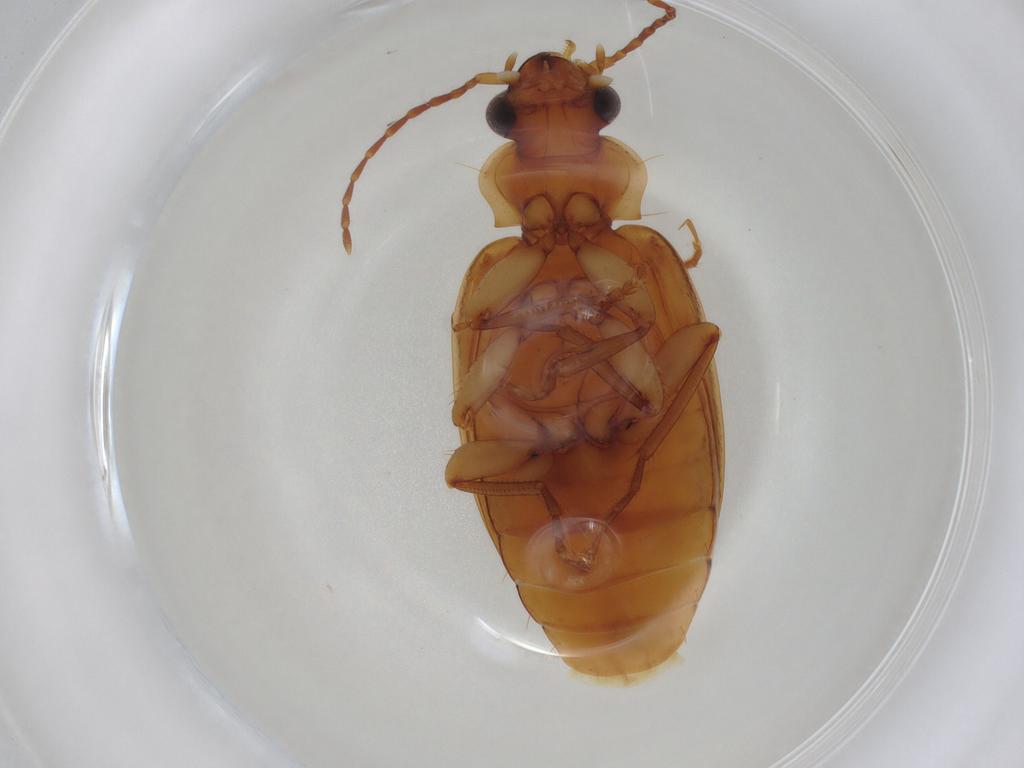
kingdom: Animalia
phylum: Arthropoda
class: Insecta
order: Coleoptera
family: Carabidae
